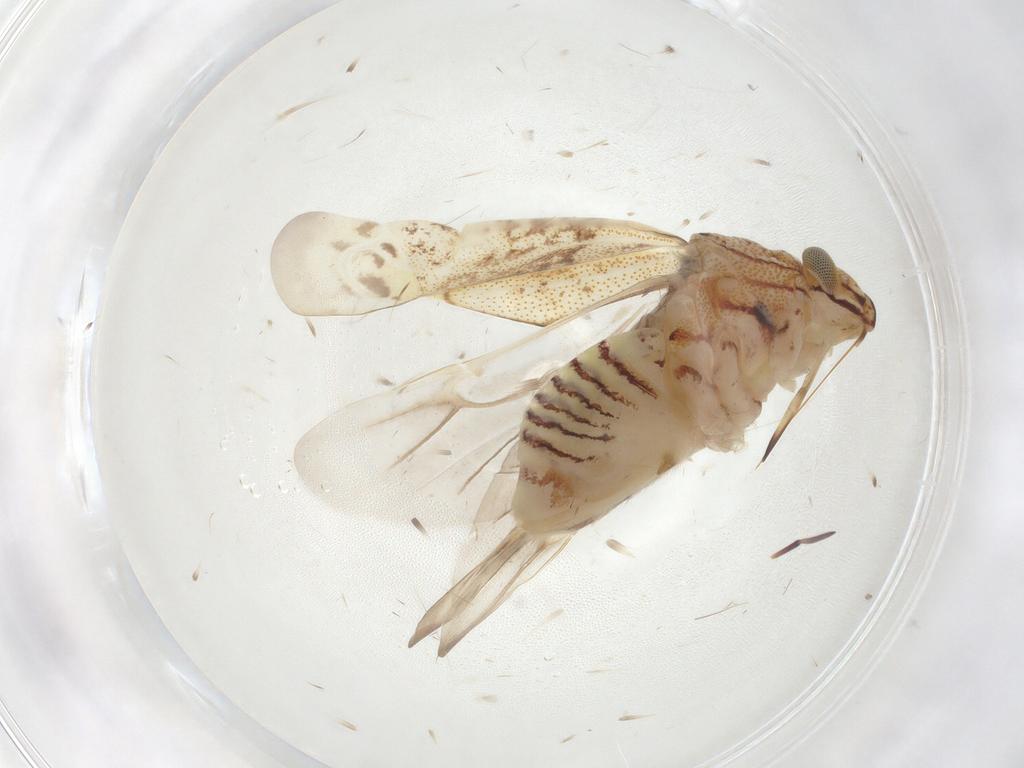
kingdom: Animalia
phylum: Arthropoda
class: Insecta
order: Hemiptera
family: Miridae
